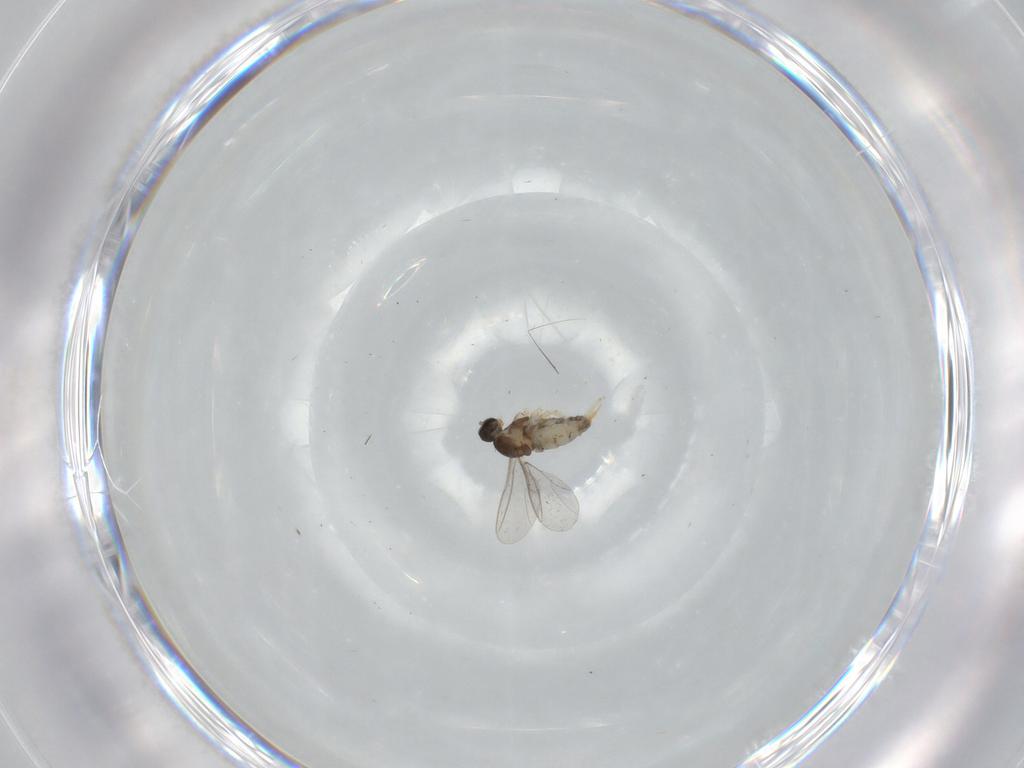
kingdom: Animalia
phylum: Arthropoda
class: Insecta
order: Diptera
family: Cecidomyiidae
